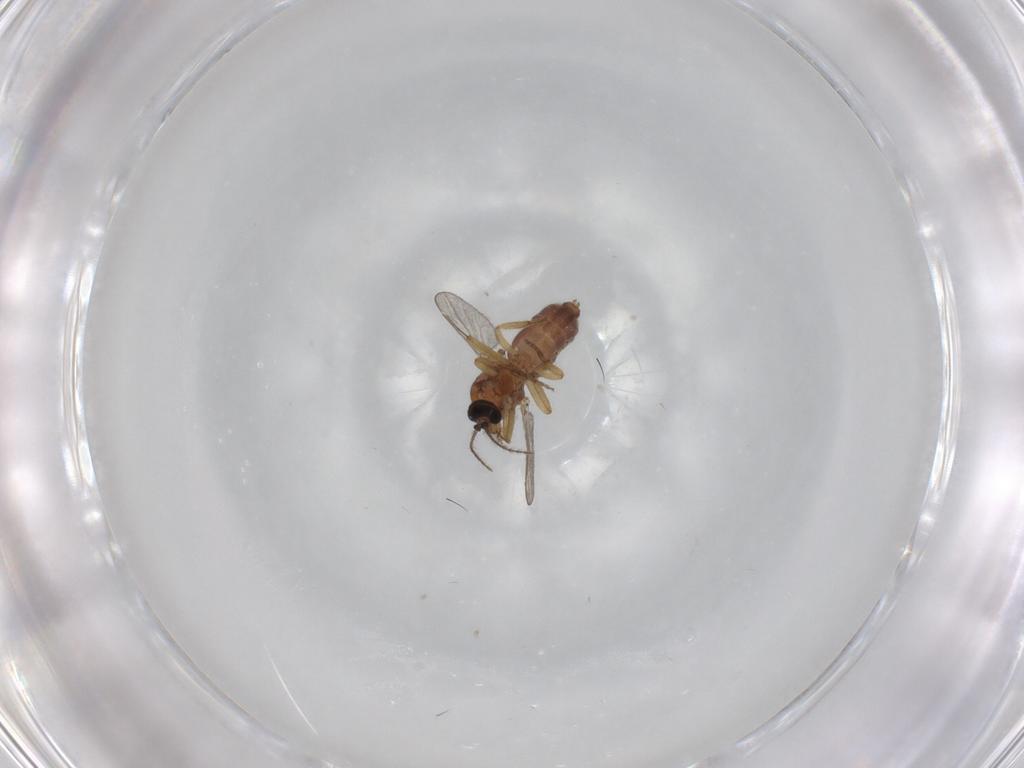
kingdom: Animalia
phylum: Arthropoda
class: Insecta
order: Diptera
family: Ceratopogonidae
